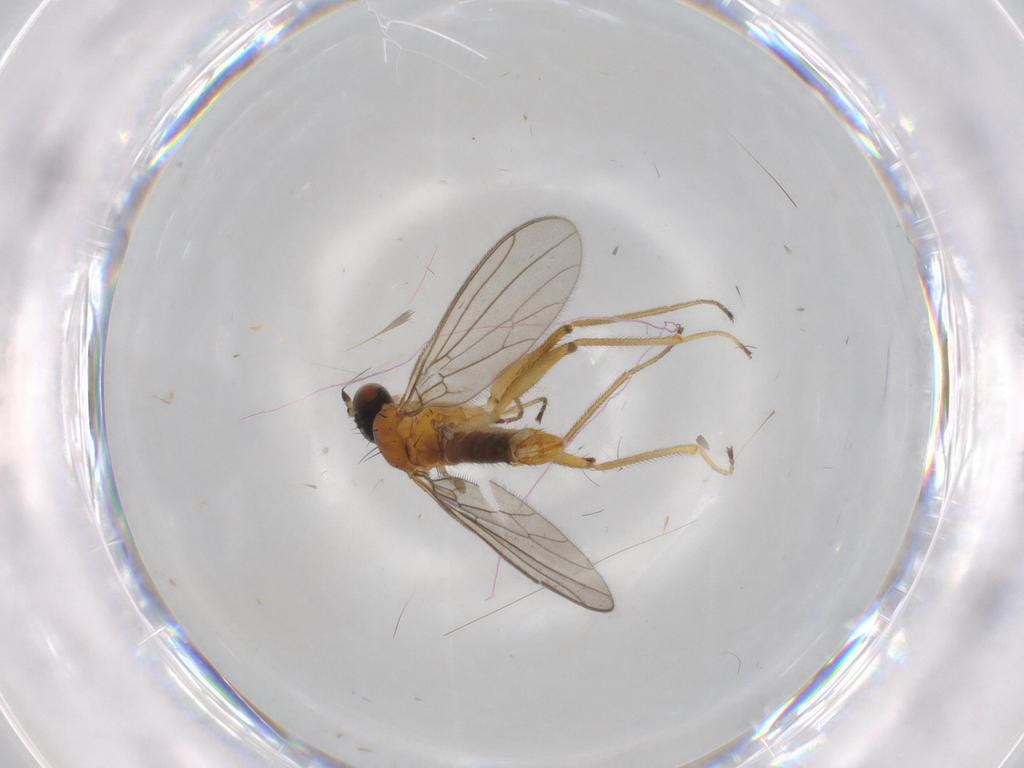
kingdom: Animalia
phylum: Arthropoda
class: Insecta
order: Diptera
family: Empididae
